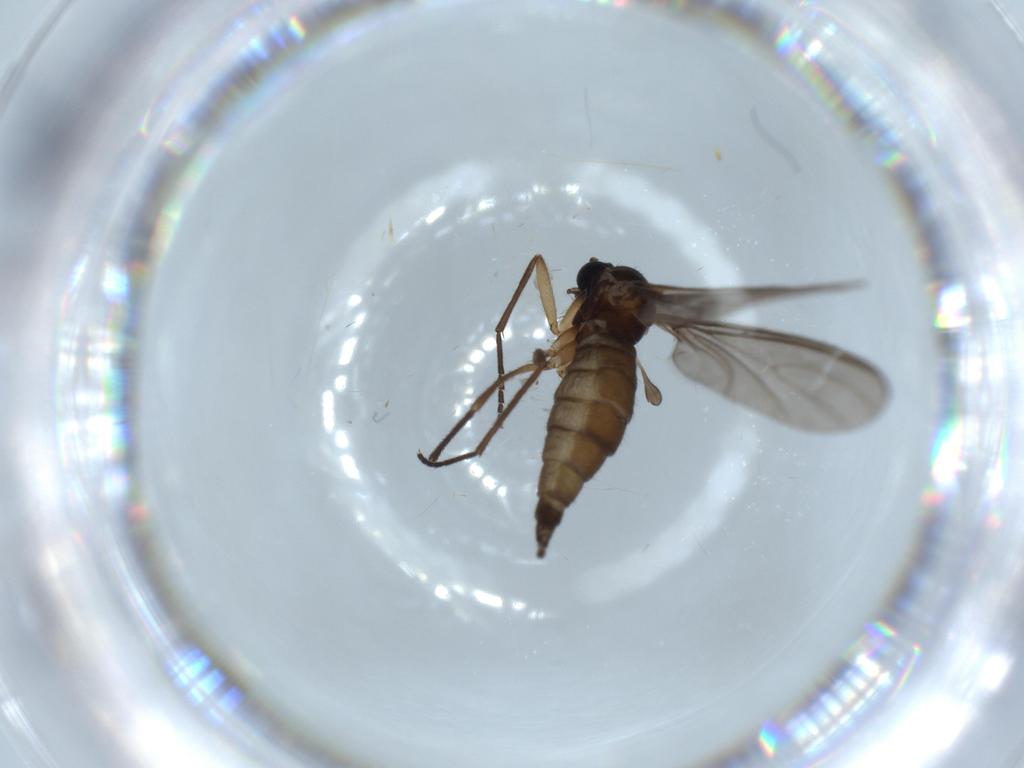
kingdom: Animalia
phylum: Arthropoda
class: Insecta
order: Diptera
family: Sciaridae
